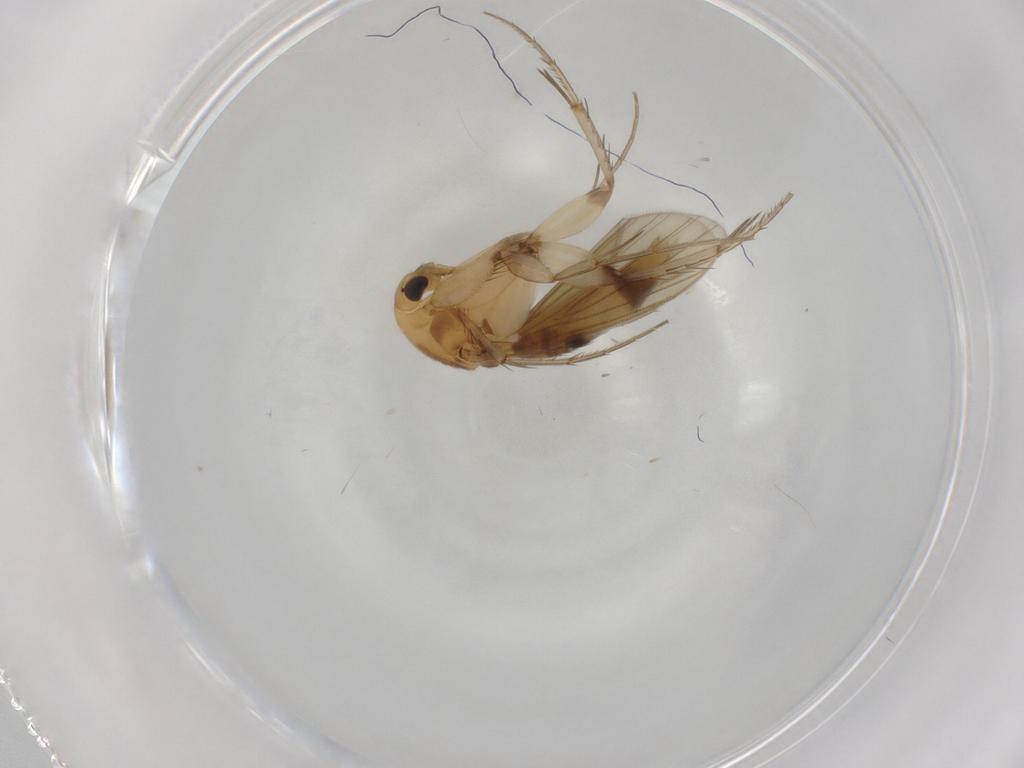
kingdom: Animalia
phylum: Arthropoda
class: Insecta
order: Diptera
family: Mycetophilidae
